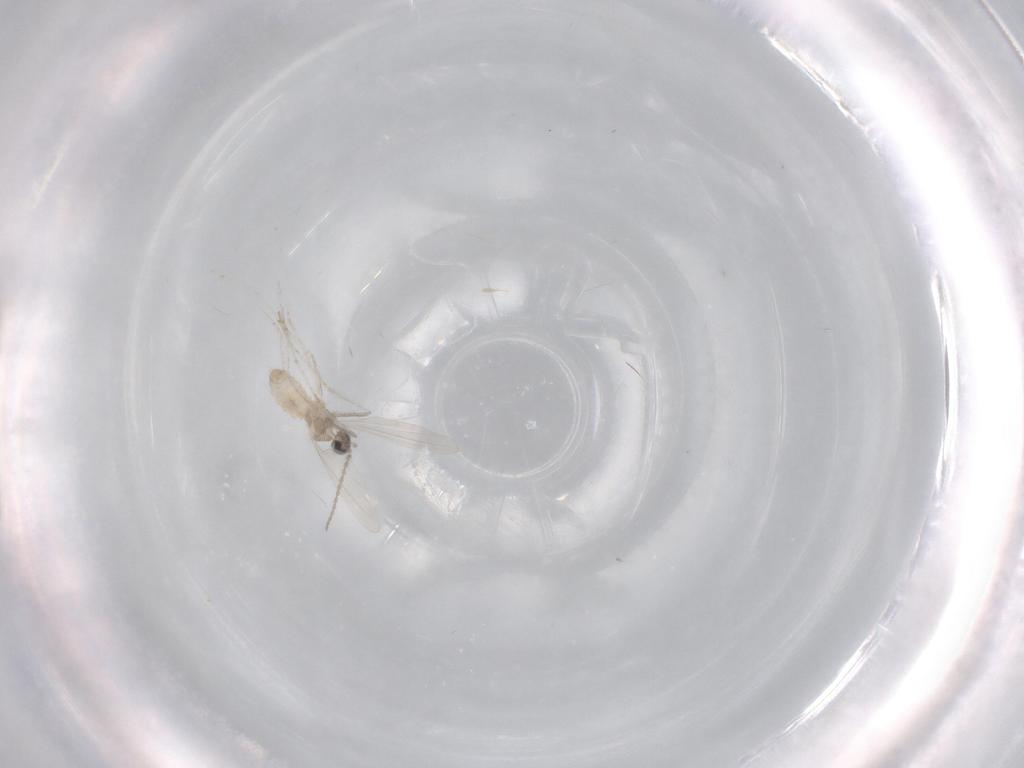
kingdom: Animalia
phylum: Arthropoda
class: Insecta
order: Diptera
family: Cecidomyiidae
